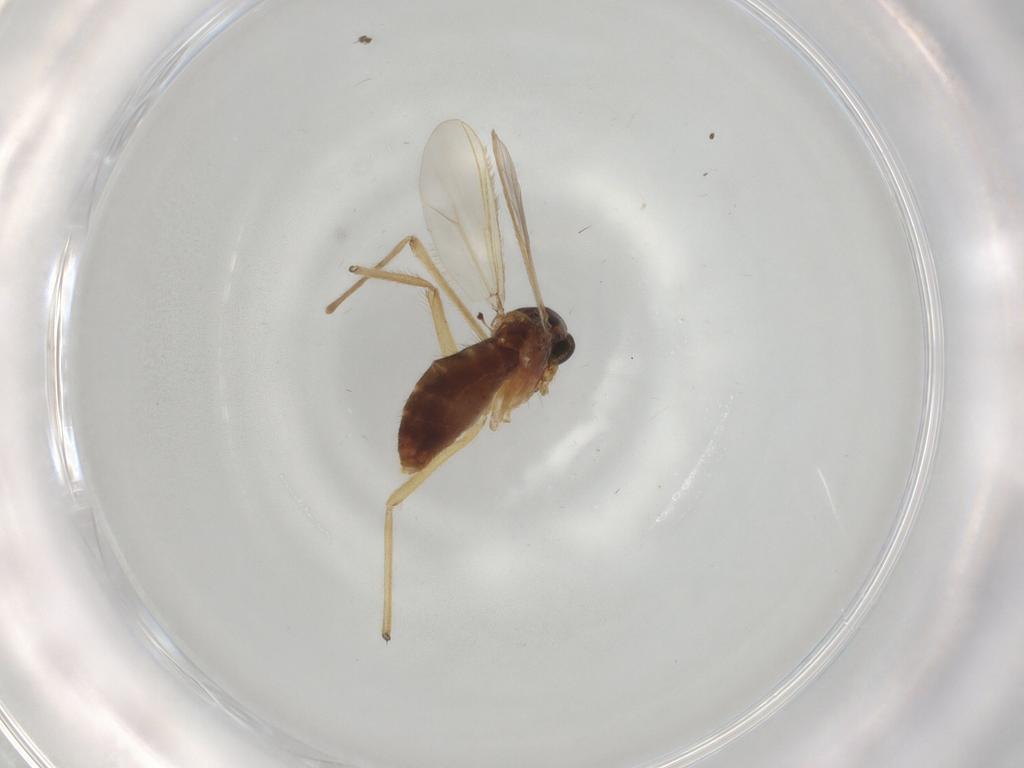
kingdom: Animalia
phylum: Arthropoda
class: Insecta
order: Diptera
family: Chironomidae
